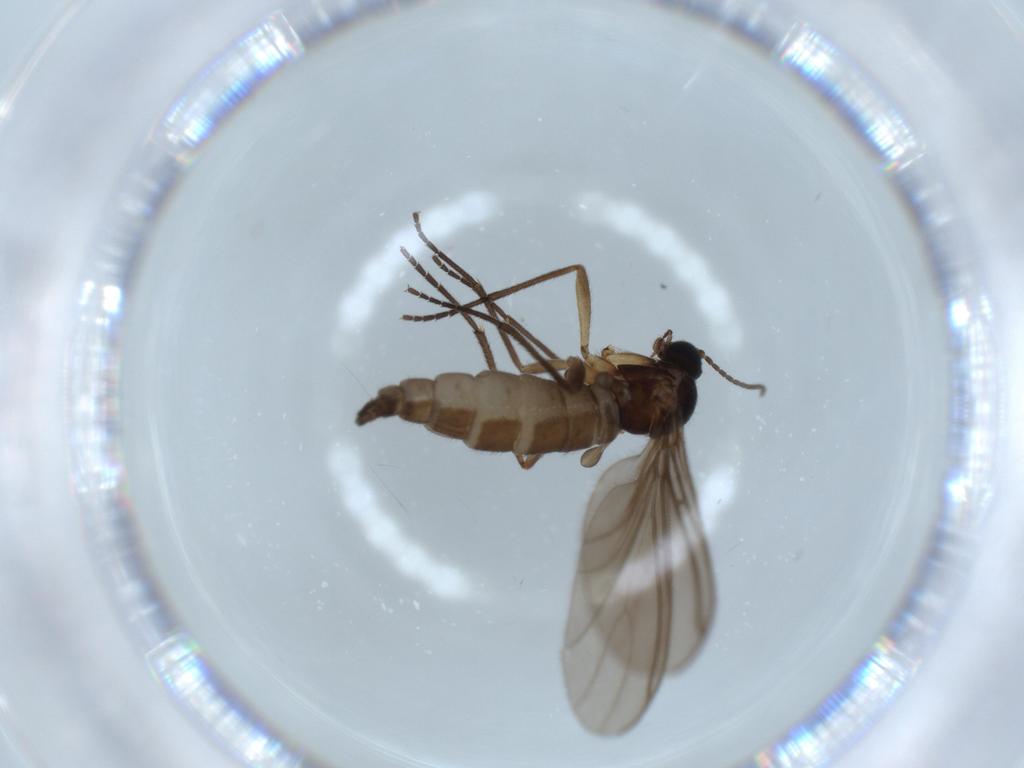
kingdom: Animalia
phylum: Arthropoda
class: Insecta
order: Diptera
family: Sciaridae
